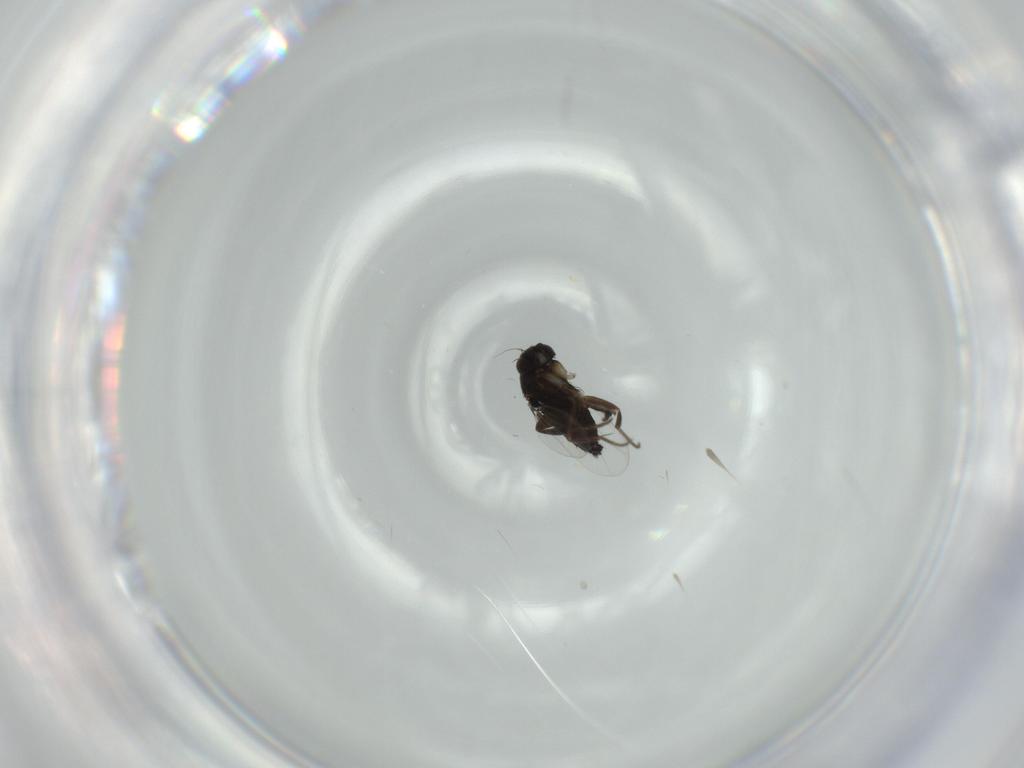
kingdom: Animalia
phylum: Arthropoda
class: Insecta
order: Diptera
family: Phoridae
